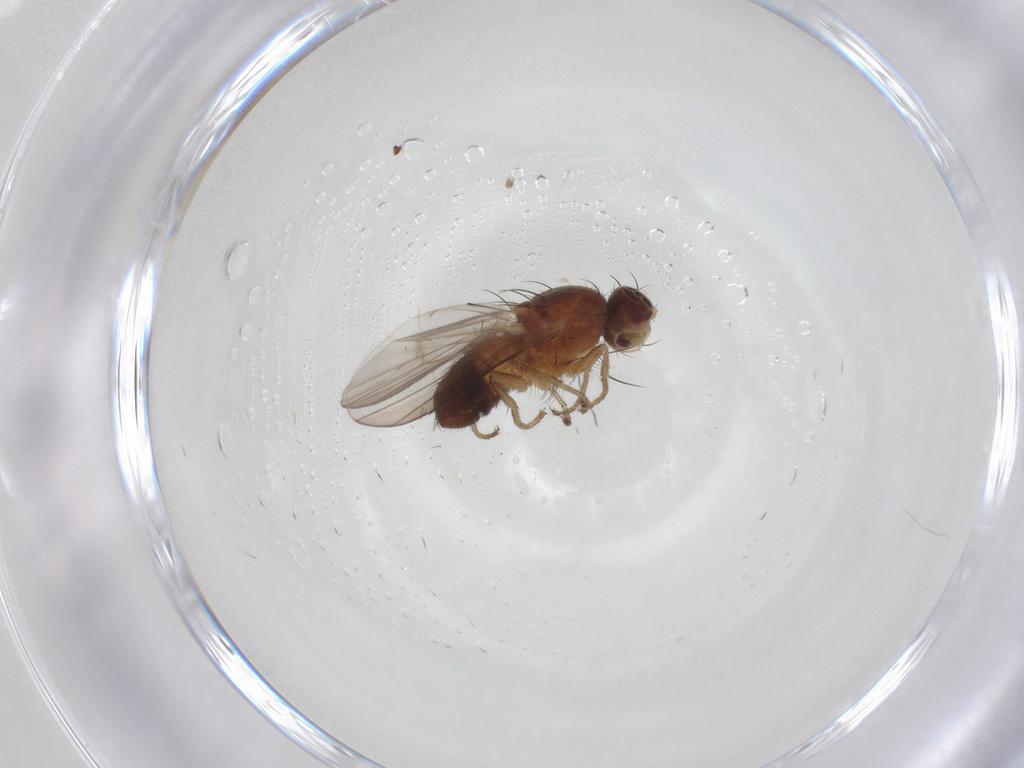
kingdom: Animalia
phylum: Arthropoda
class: Insecta
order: Diptera
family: Heleomyzidae
